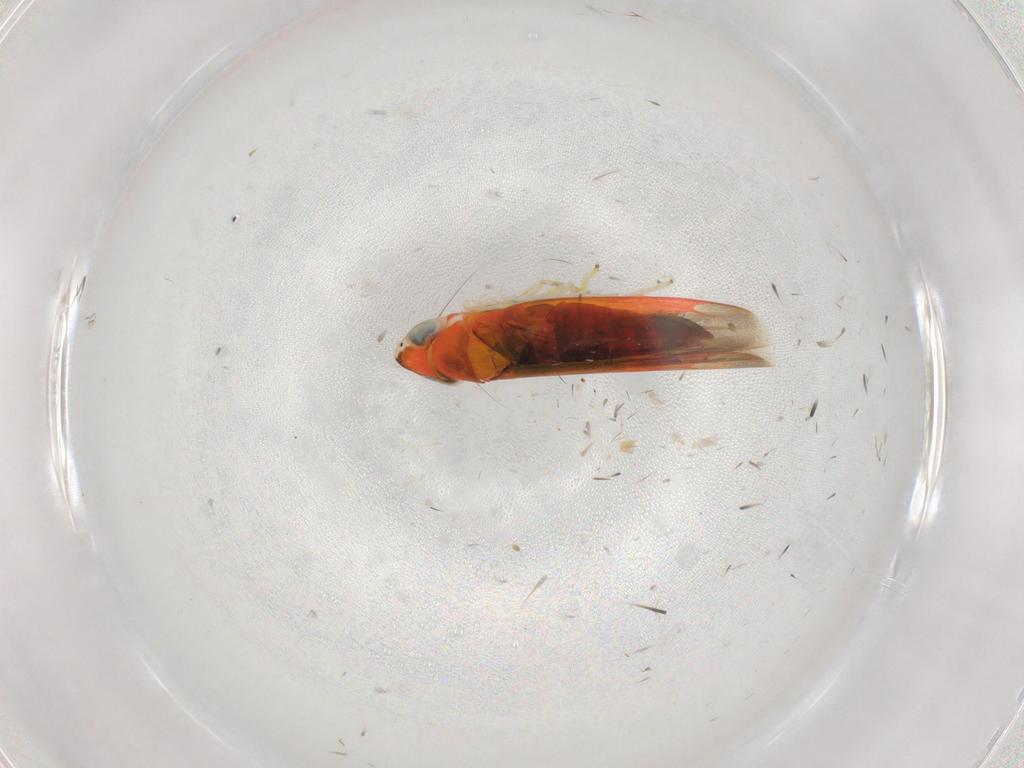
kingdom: Animalia
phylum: Arthropoda
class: Insecta
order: Hemiptera
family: Cicadellidae
